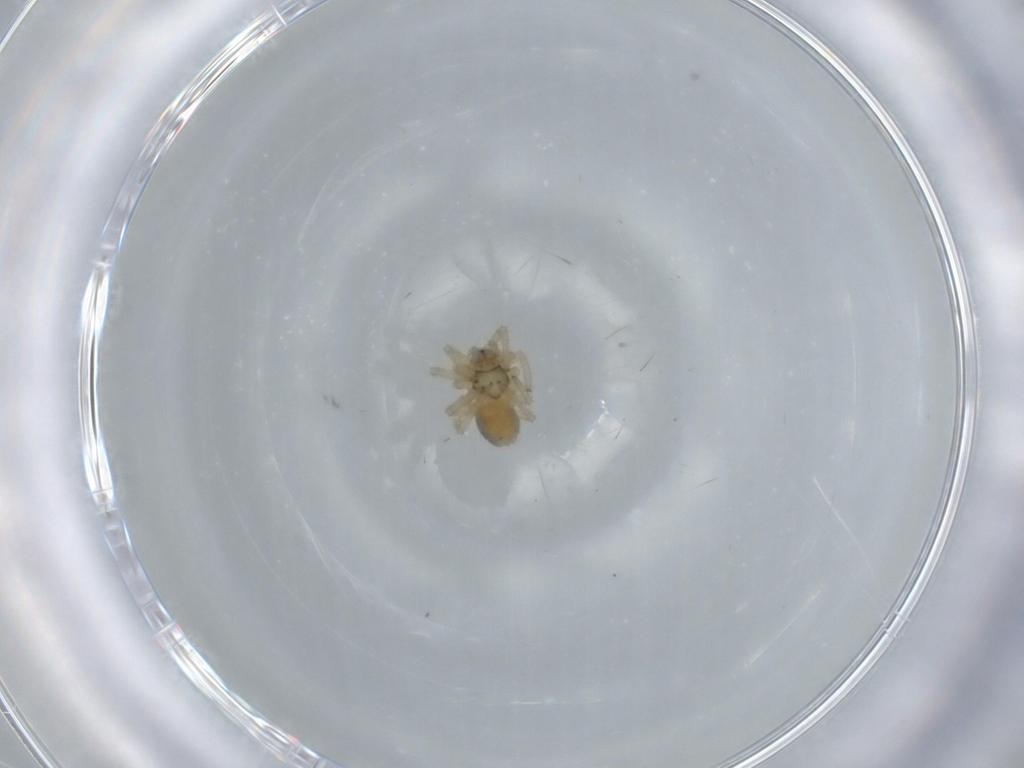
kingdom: Animalia
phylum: Arthropoda
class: Arachnida
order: Araneae
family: Linyphiidae
